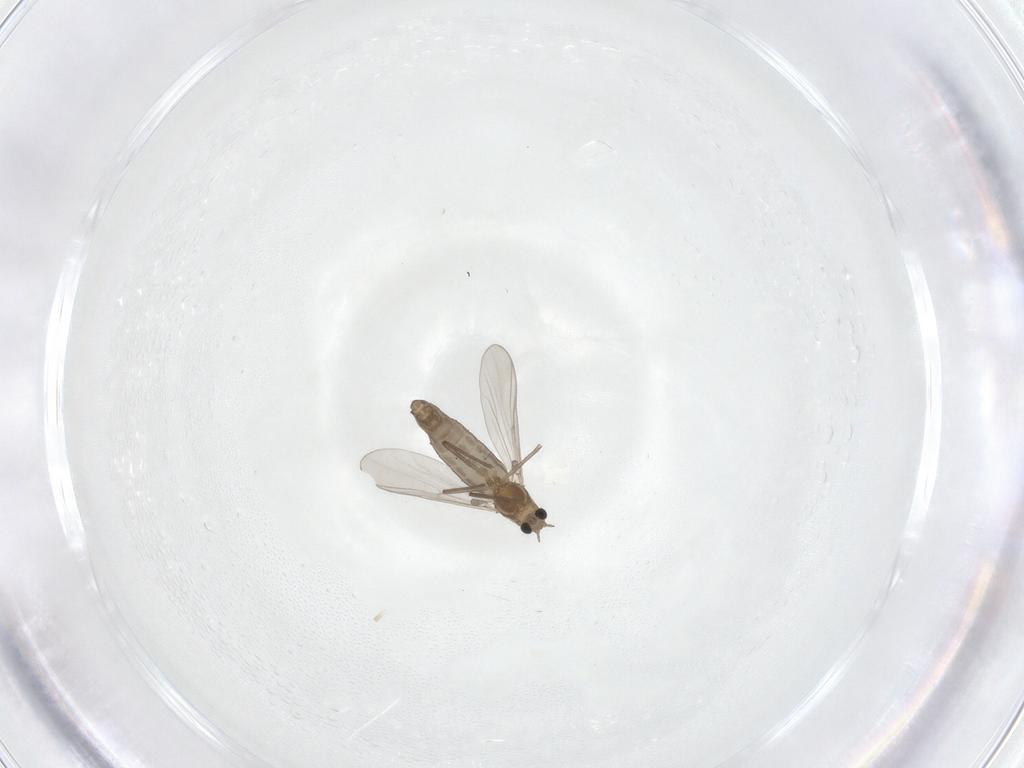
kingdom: Animalia
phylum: Arthropoda
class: Insecta
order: Diptera
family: Chironomidae
